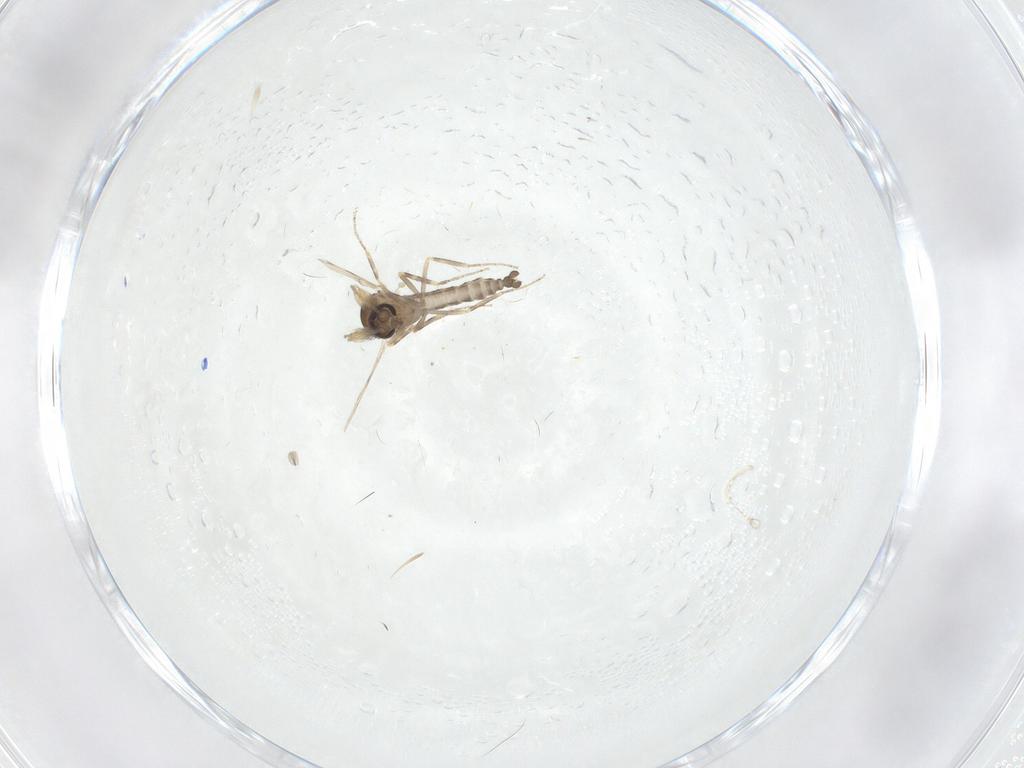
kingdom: Animalia
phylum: Arthropoda
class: Insecta
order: Diptera
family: Ceratopogonidae
